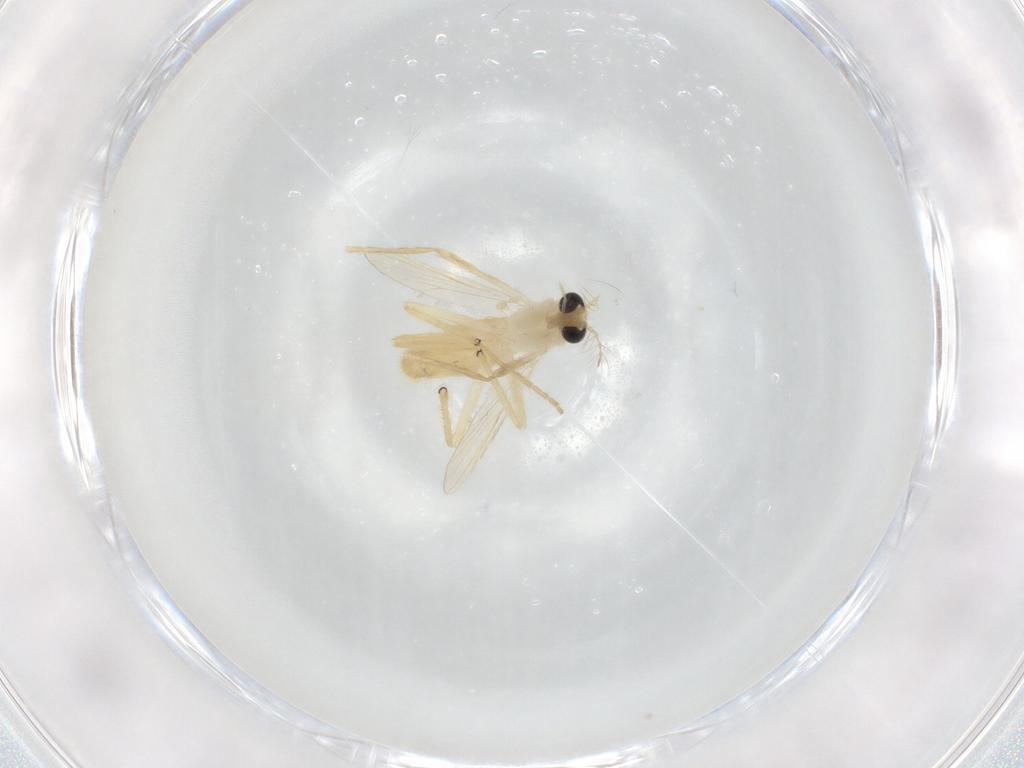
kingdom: Animalia
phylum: Arthropoda
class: Insecta
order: Diptera
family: Chironomidae
